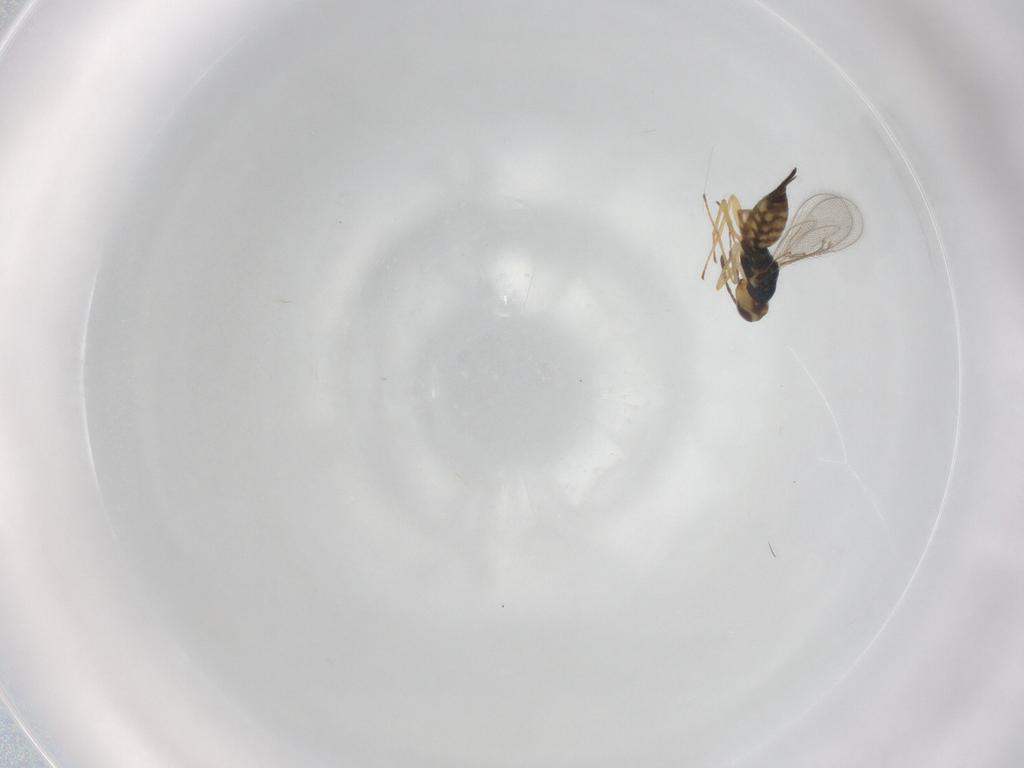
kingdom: Animalia
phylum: Arthropoda
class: Insecta
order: Hymenoptera
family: Eulophidae
